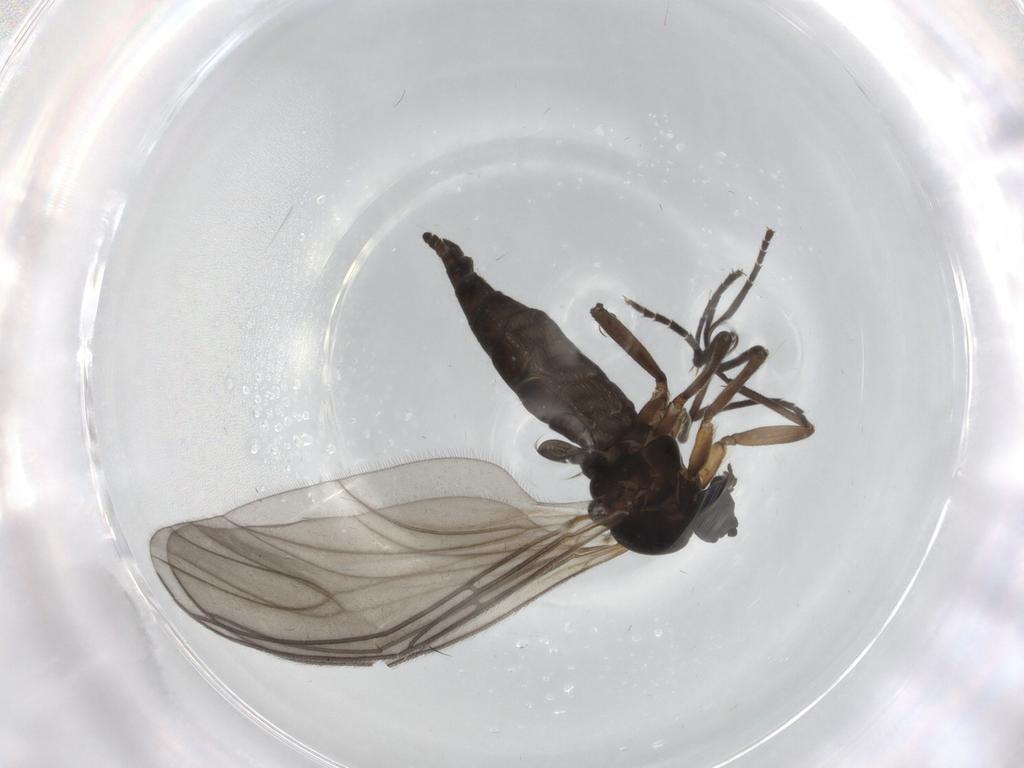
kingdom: Animalia
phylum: Arthropoda
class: Insecta
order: Diptera
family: Sciaridae
